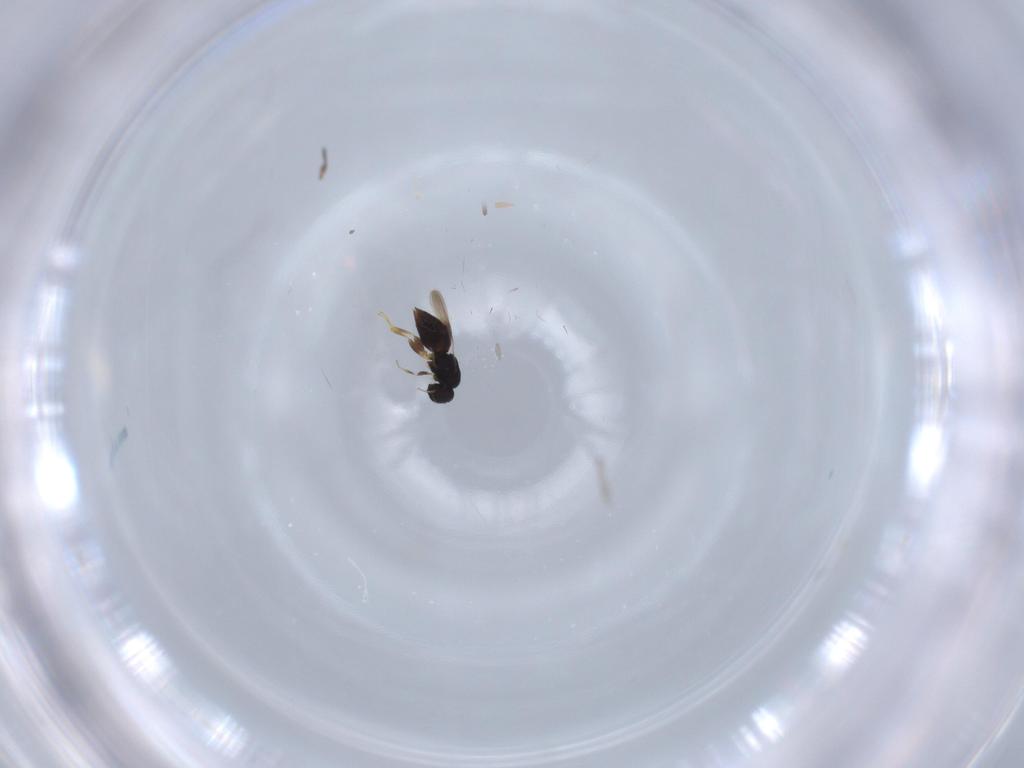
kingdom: Animalia
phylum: Arthropoda
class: Insecta
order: Hymenoptera
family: Ceraphronidae
